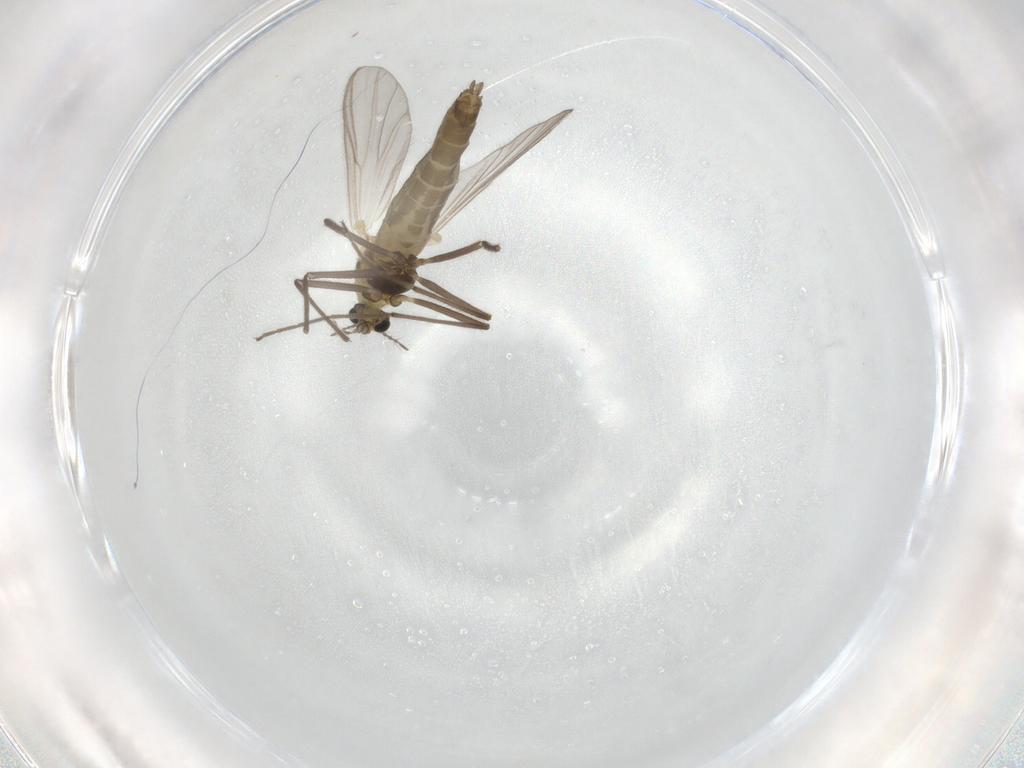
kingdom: Animalia
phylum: Arthropoda
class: Insecta
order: Diptera
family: Chironomidae
